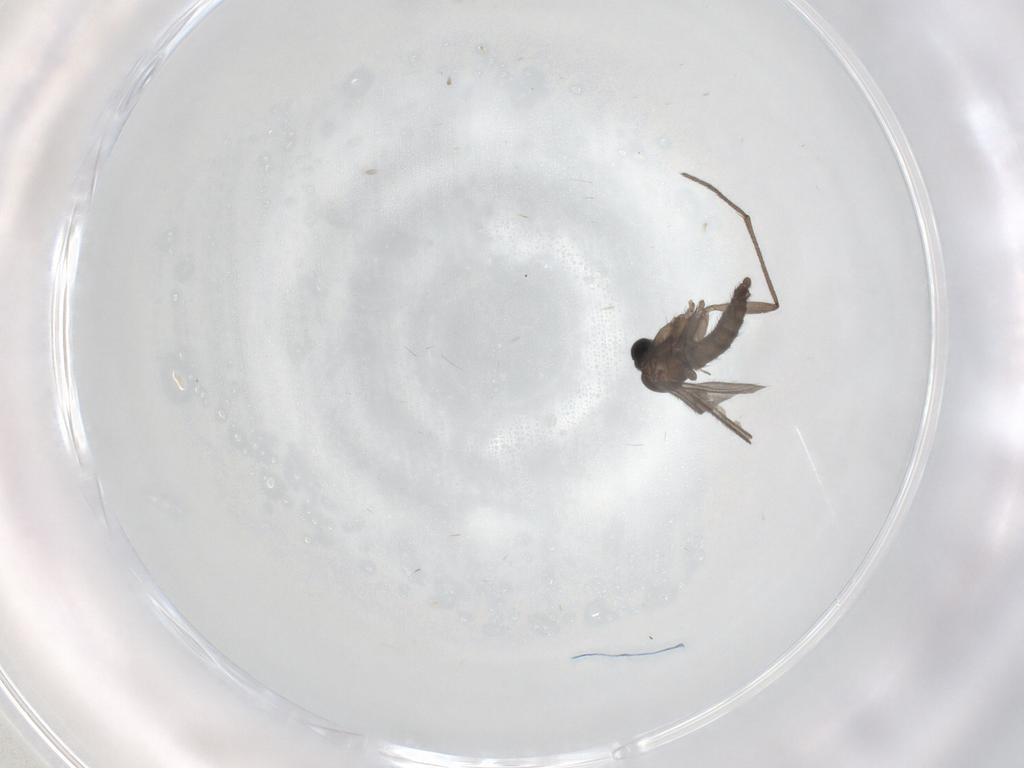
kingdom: Animalia
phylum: Arthropoda
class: Insecta
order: Diptera
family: Sciaridae
